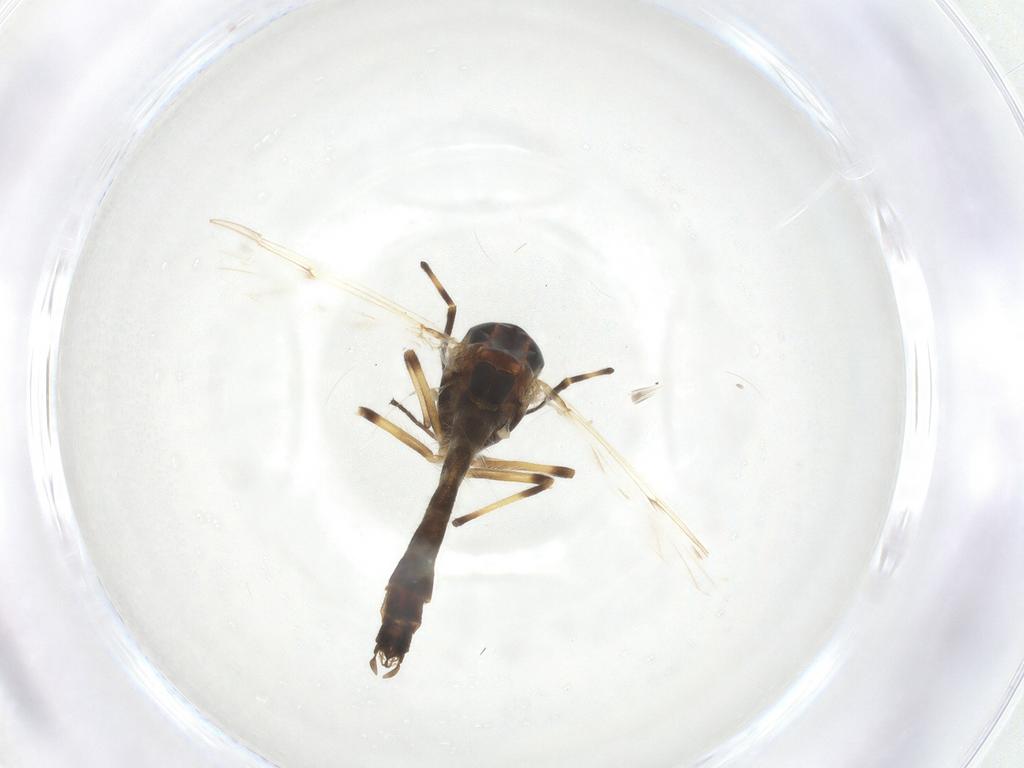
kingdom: Animalia
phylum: Arthropoda
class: Insecta
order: Diptera
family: Chironomidae
